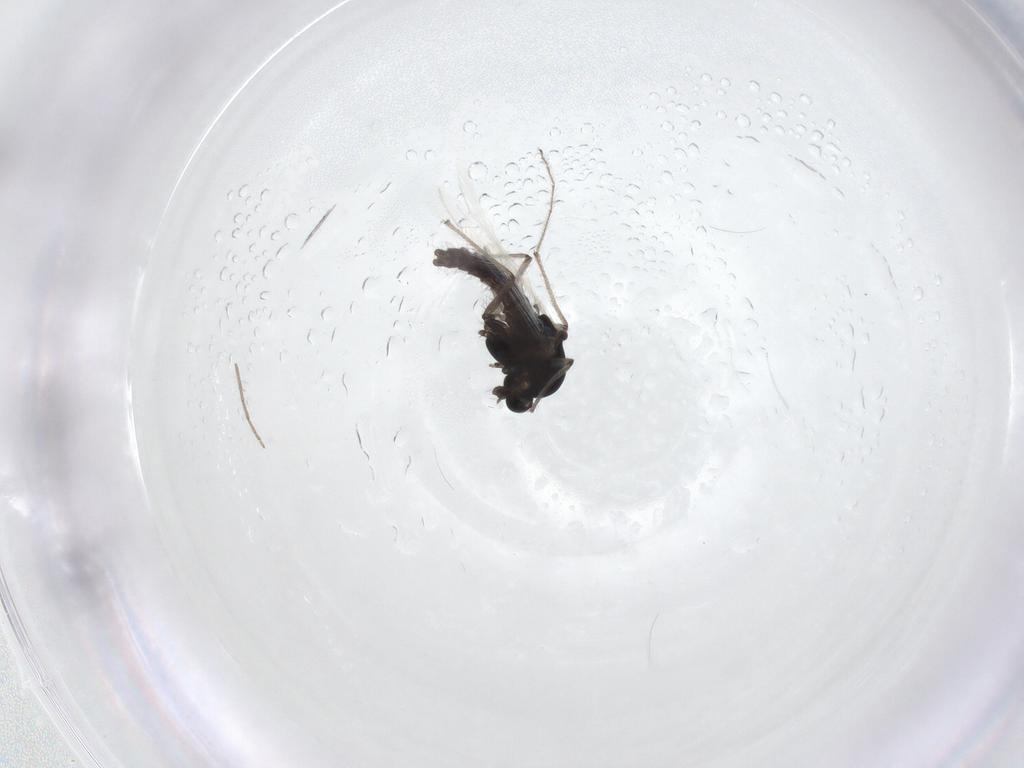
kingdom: Animalia
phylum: Arthropoda
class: Insecta
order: Diptera
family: Chironomidae
